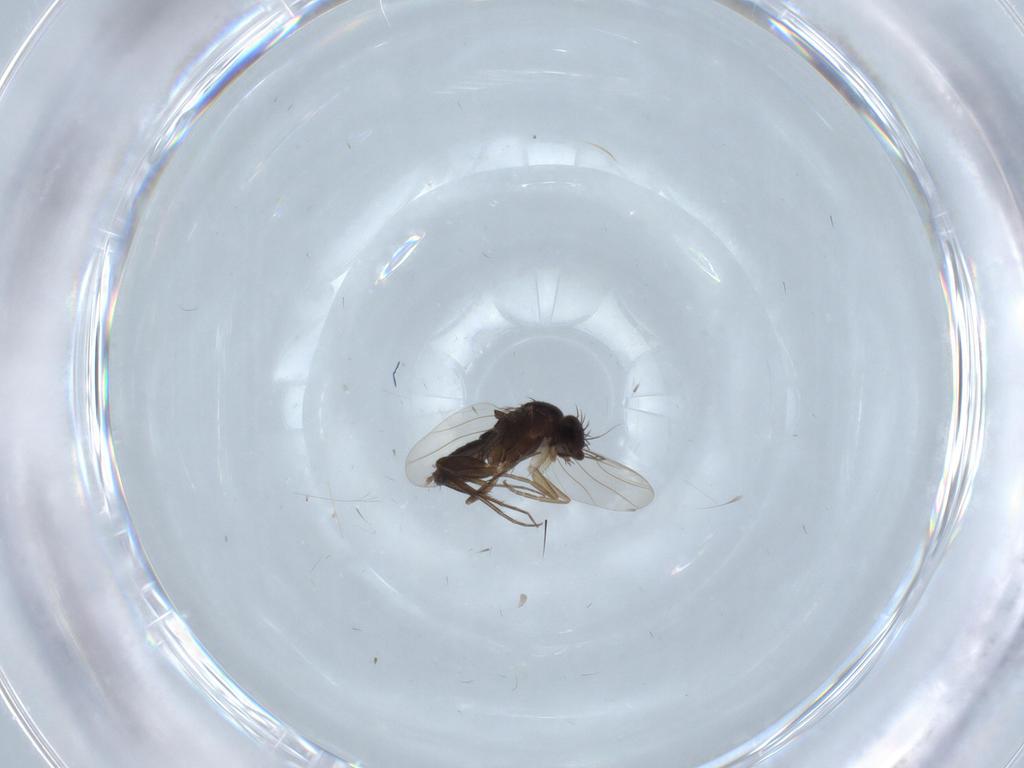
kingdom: Animalia
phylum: Arthropoda
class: Insecta
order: Diptera
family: Phoridae
